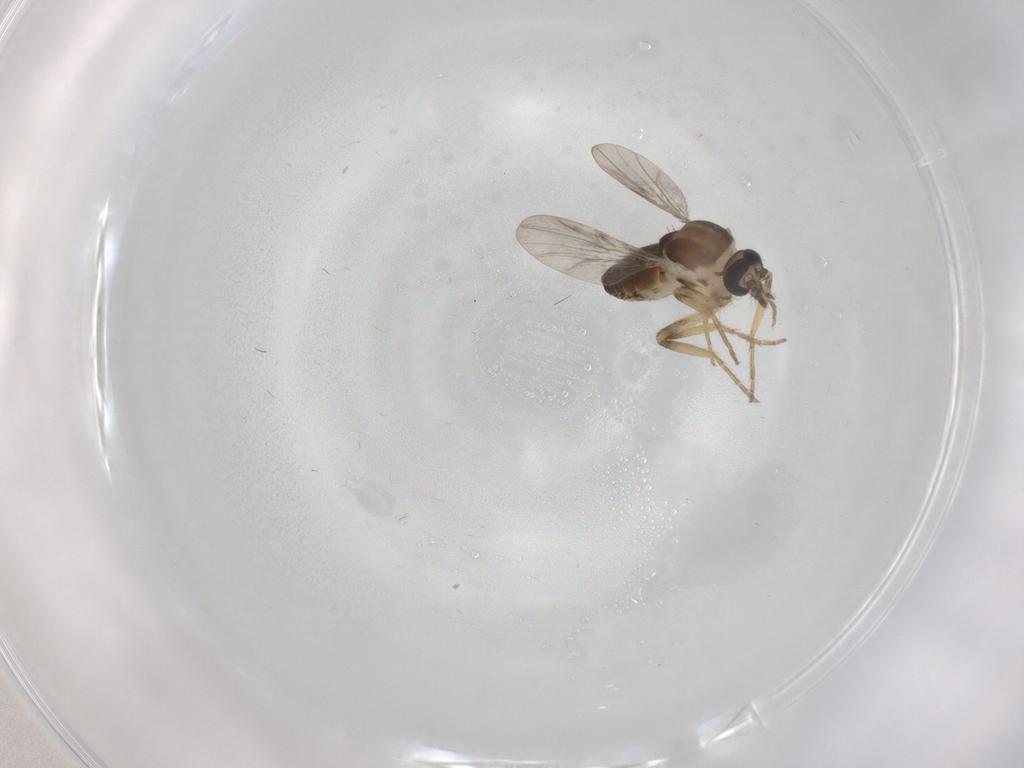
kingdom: Animalia
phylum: Arthropoda
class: Insecta
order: Diptera
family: Ceratopogonidae
